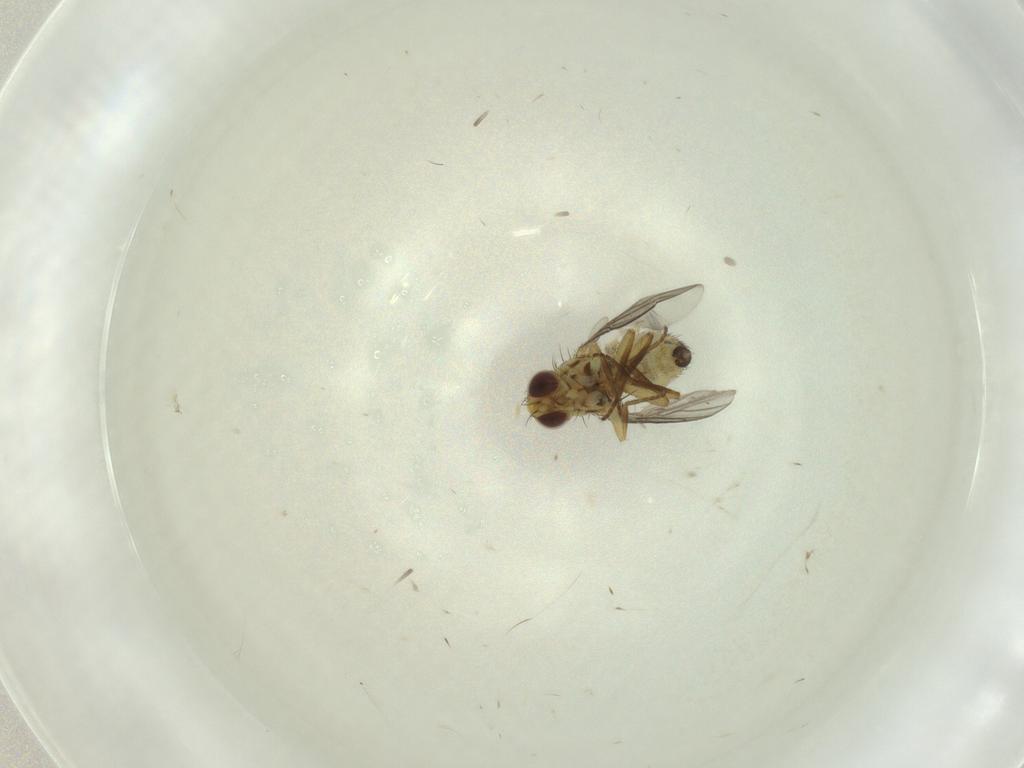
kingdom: Animalia
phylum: Arthropoda
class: Insecta
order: Diptera
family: Agromyzidae
